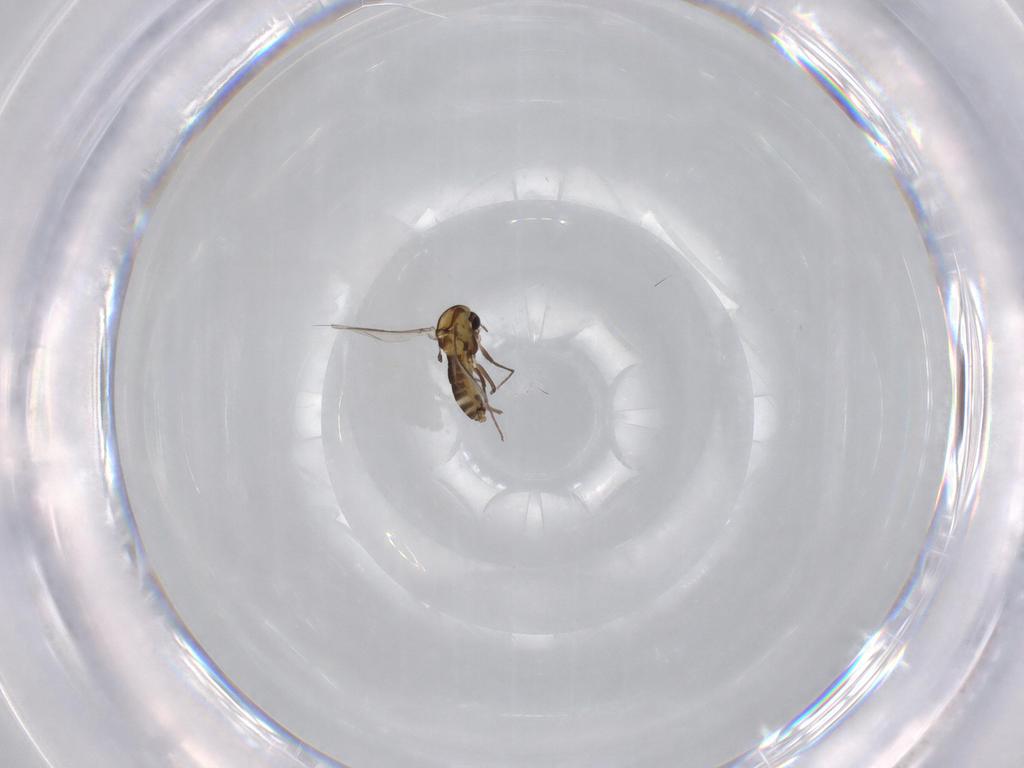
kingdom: Animalia
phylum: Arthropoda
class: Insecta
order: Diptera
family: Chironomidae
